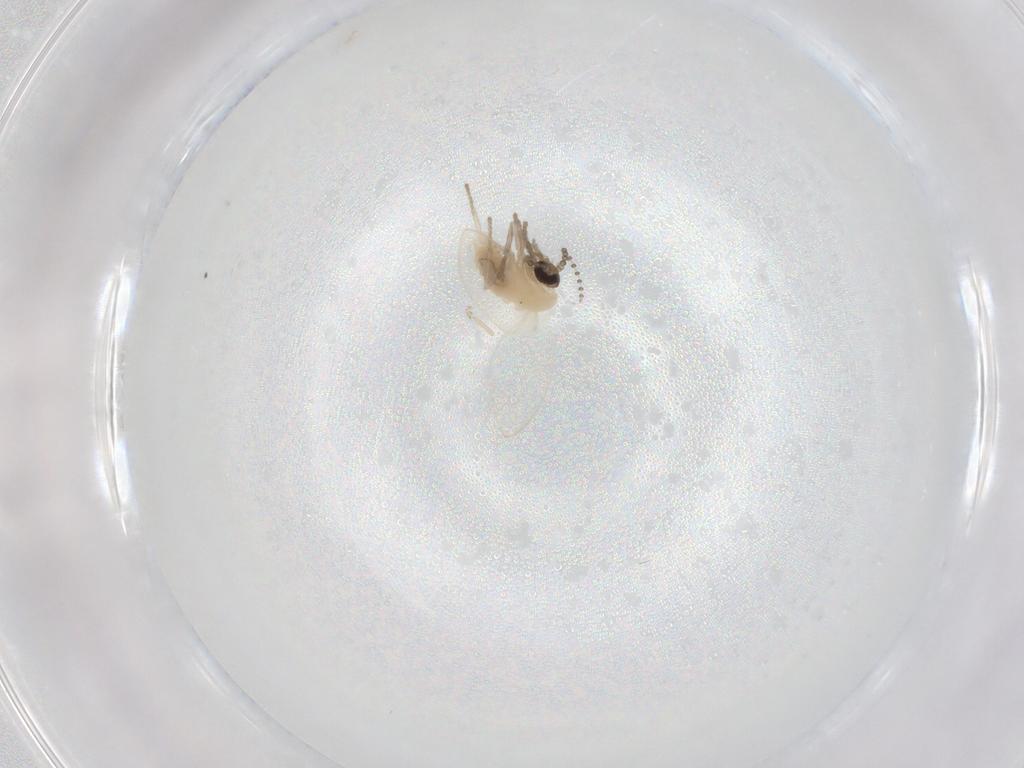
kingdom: Animalia
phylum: Arthropoda
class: Insecta
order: Diptera
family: Psychodidae
